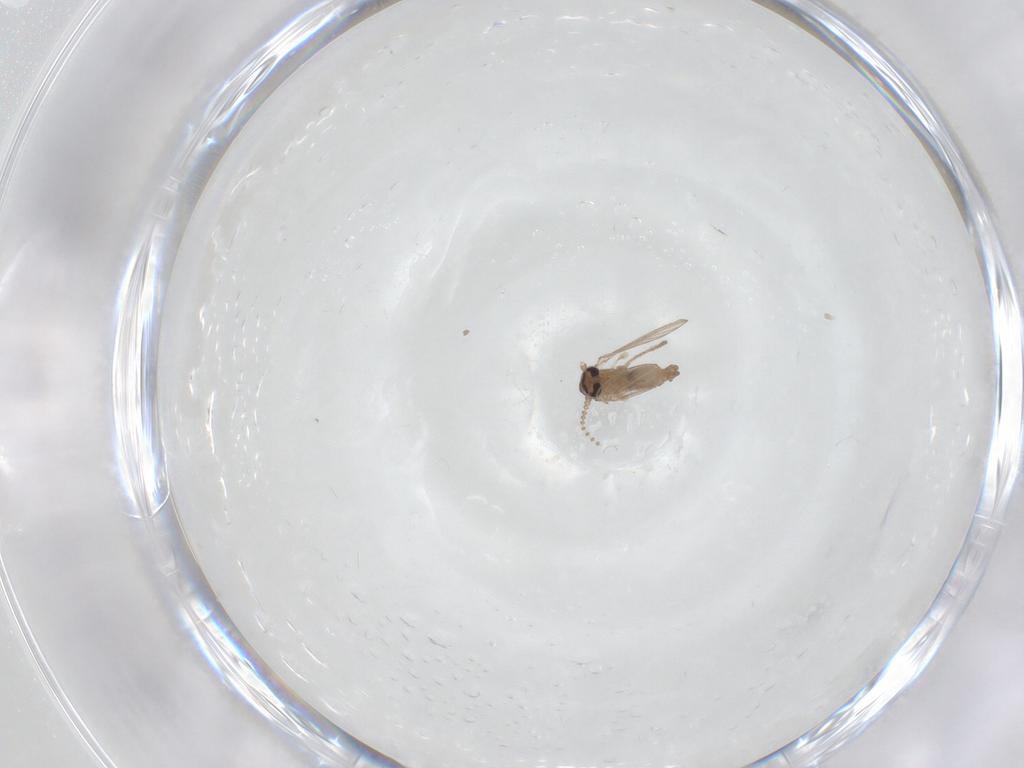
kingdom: Animalia
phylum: Arthropoda
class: Insecta
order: Diptera
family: Psychodidae
